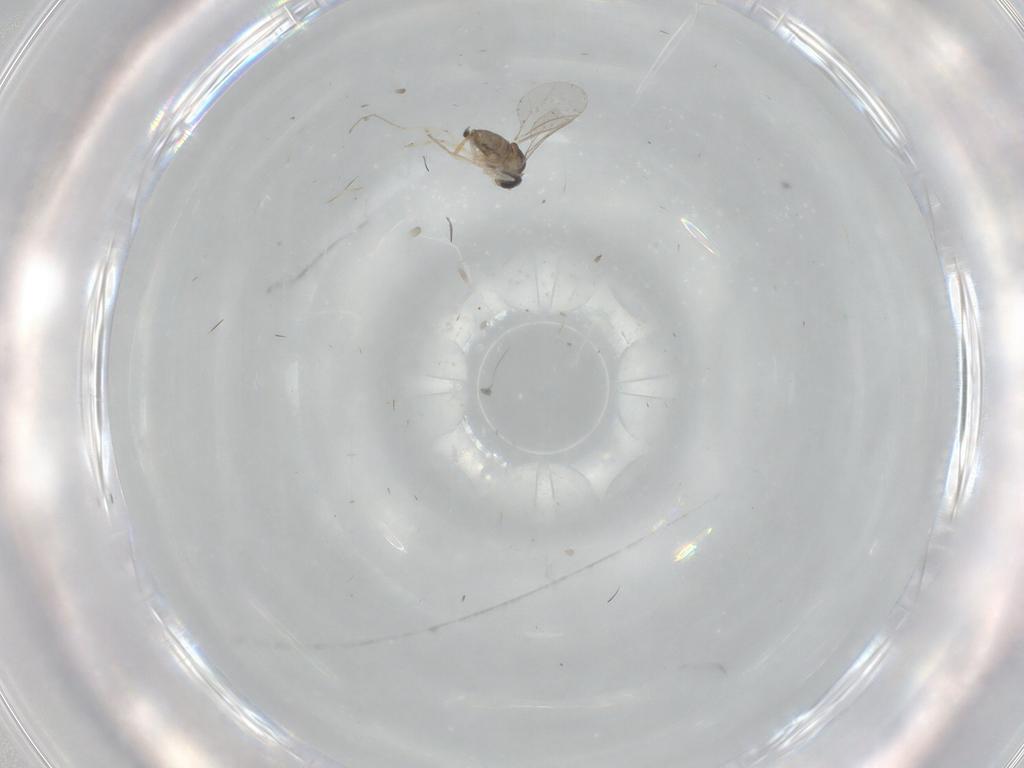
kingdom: Animalia
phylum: Arthropoda
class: Insecta
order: Diptera
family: Cecidomyiidae
